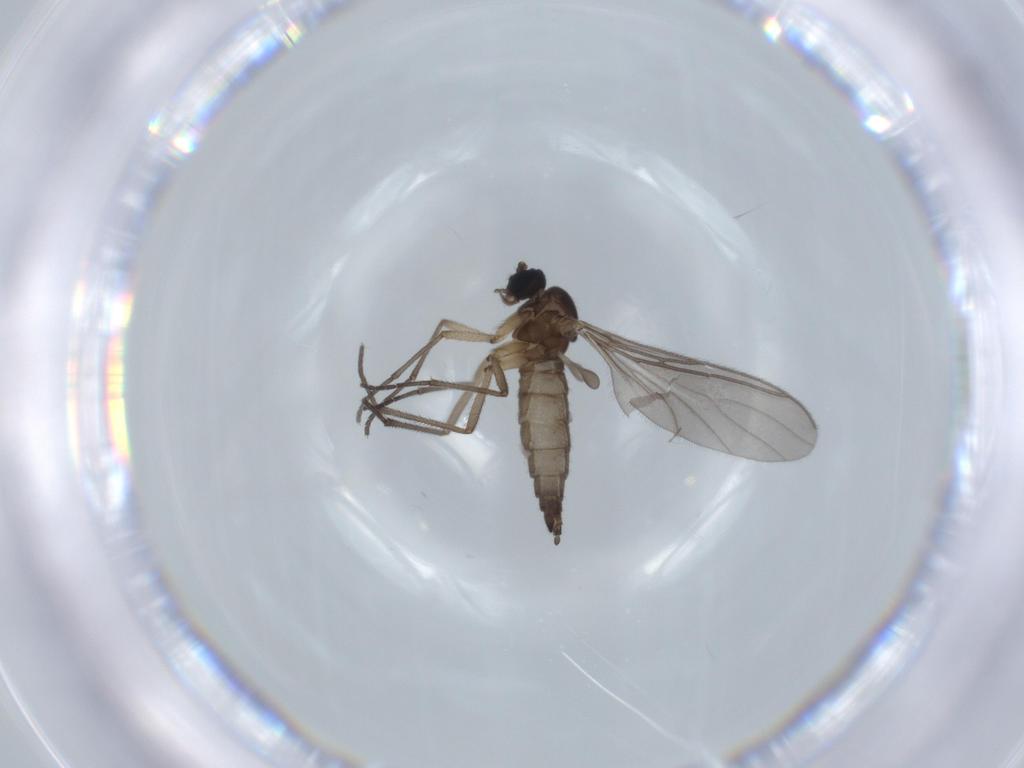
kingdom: Animalia
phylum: Arthropoda
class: Insecta
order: Diptera
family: Sciaridae
